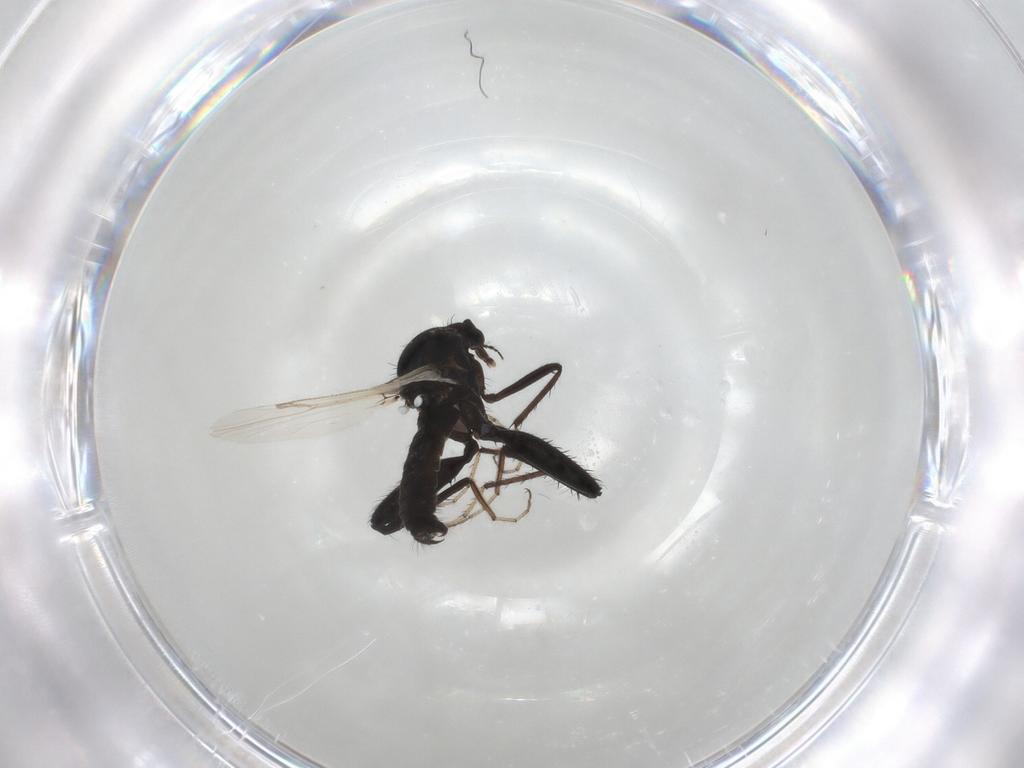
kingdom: Animalia
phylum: Arthropoda
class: Insecta
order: Diptera
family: Ceratopogonidae
